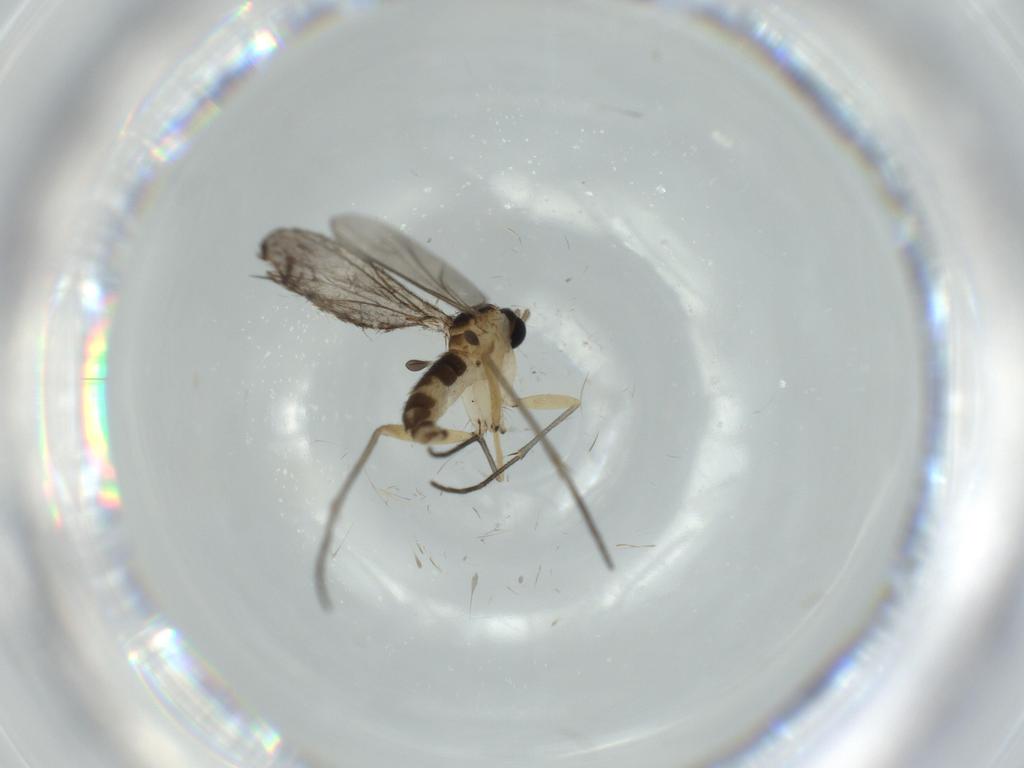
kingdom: Animalia
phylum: Arthropoda
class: Insecta
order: Diptera
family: Sciaridae
